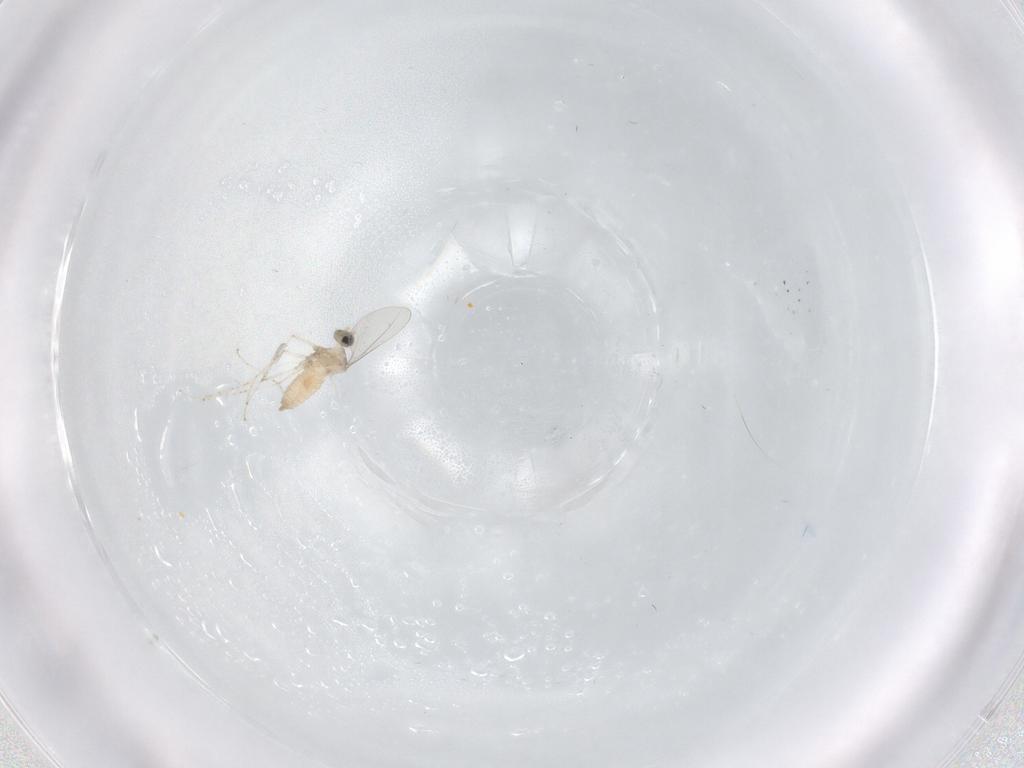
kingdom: Animalia
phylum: Arthropoda
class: Insecta
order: Diptera
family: Cecidomyiidae
